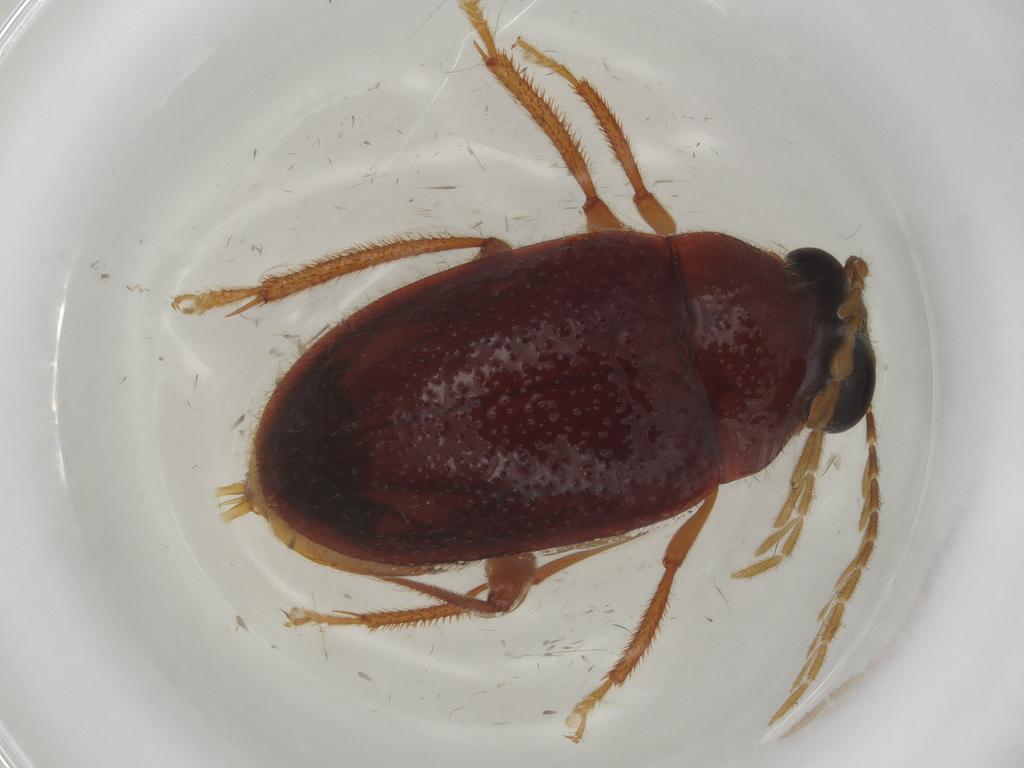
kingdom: Animalia
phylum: Arthropoda
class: Insecta
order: Coleoptera
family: Ptilodactylidae
